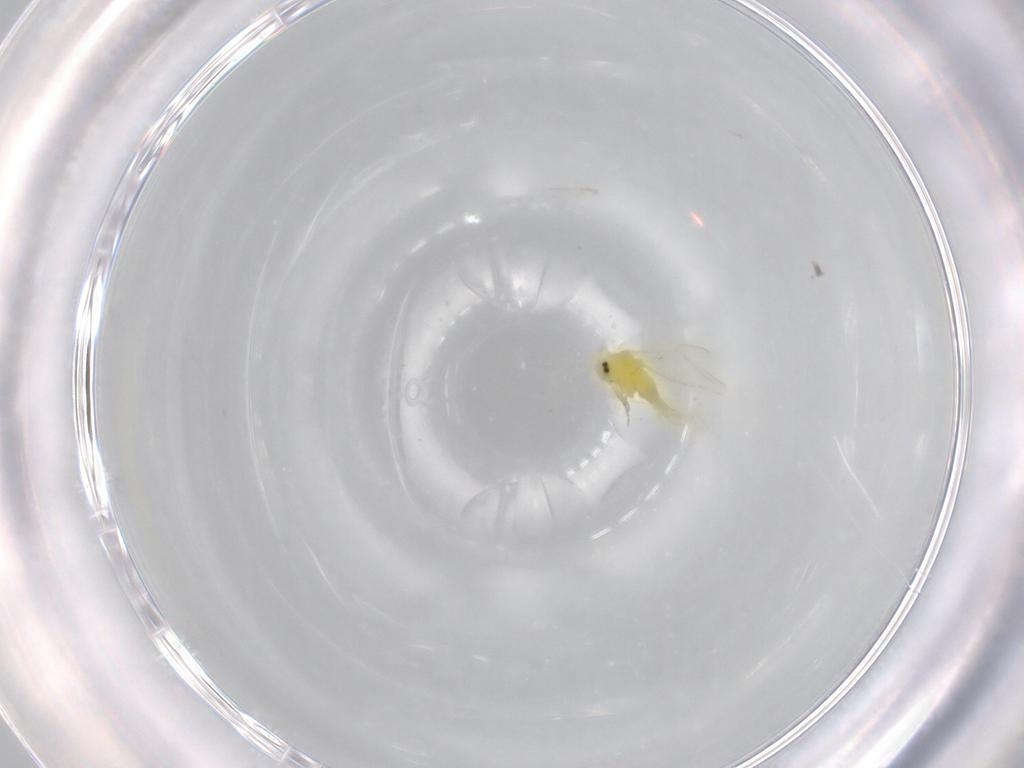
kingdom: Animalia
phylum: Arthropoda
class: Insecta
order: Hemiptera
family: Aleyrodidae
